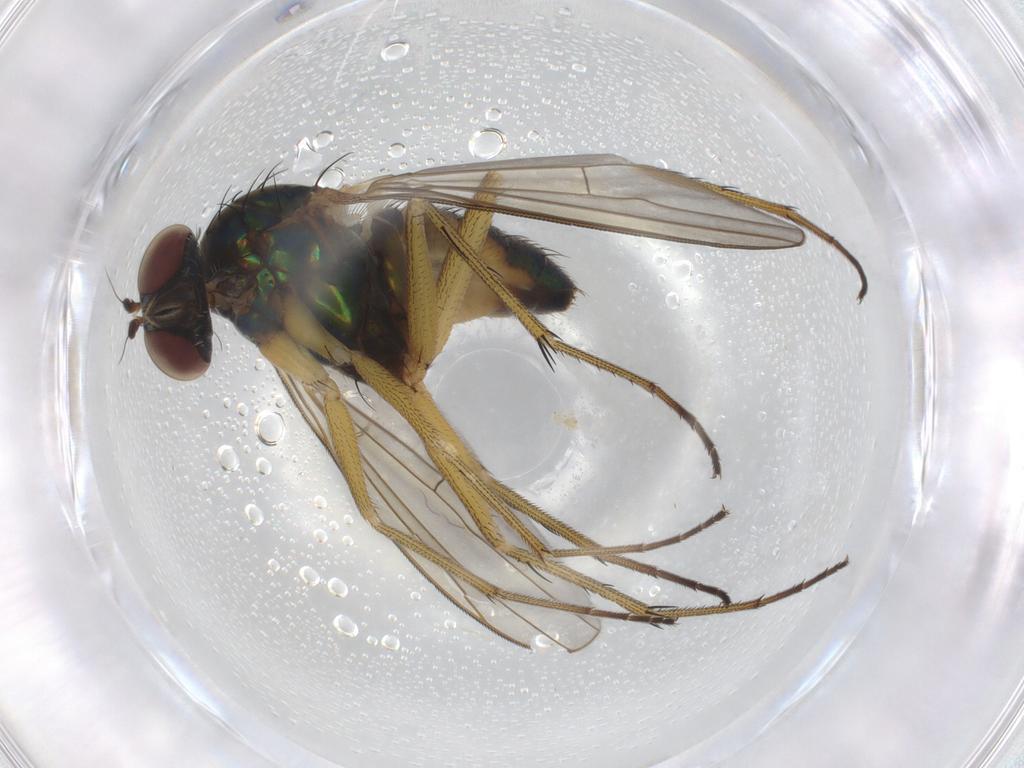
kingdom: Animalia
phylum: Arthropoda
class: Insecta
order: Diptera
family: Dolichopodidae
